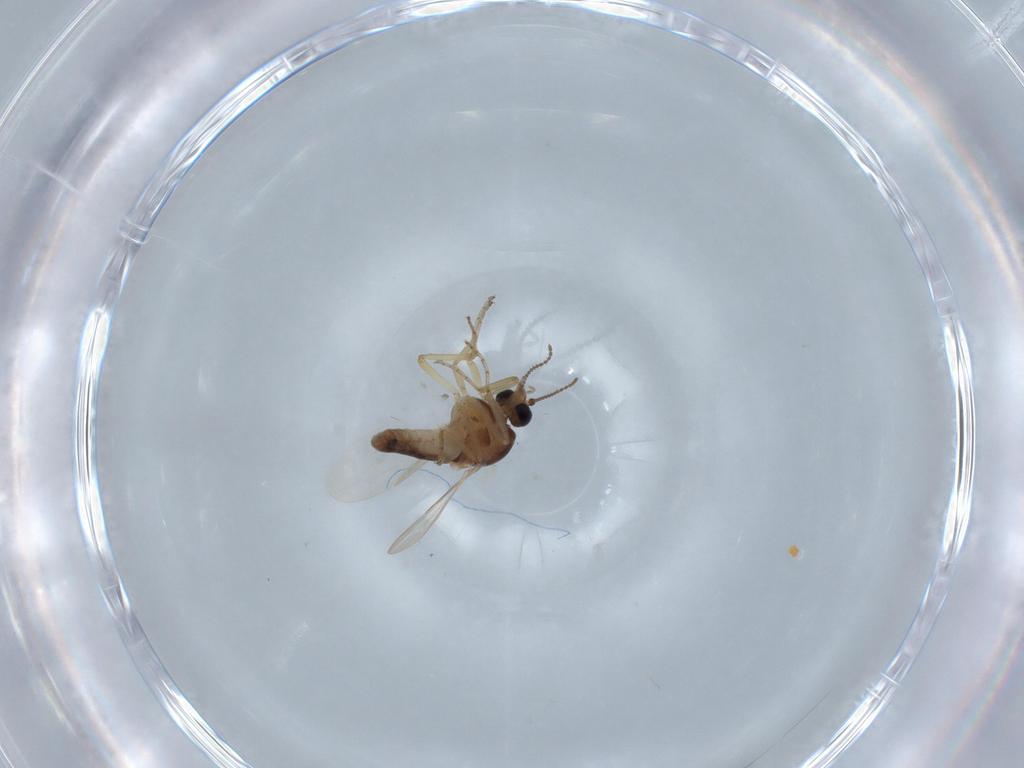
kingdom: Animalia
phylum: Arthropoda
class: Insecta
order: Diptera
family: Ceratopogonidae
